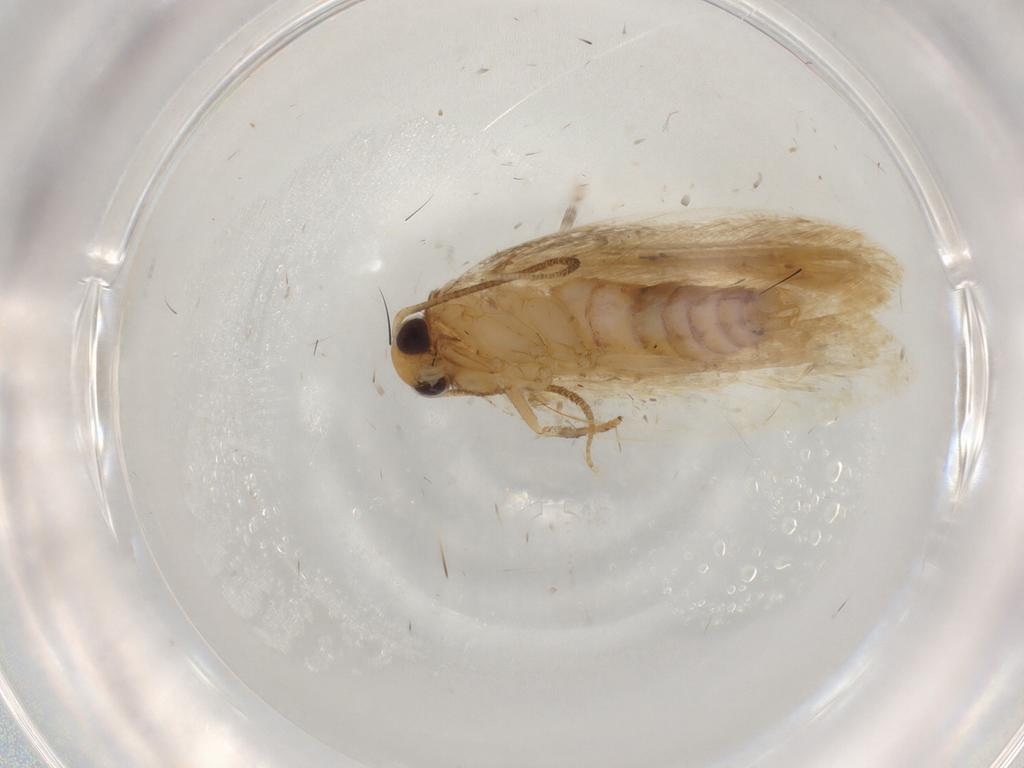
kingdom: Animalia
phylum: Arthropoda
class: Insecta
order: Lepidoptera
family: Depressariidae
